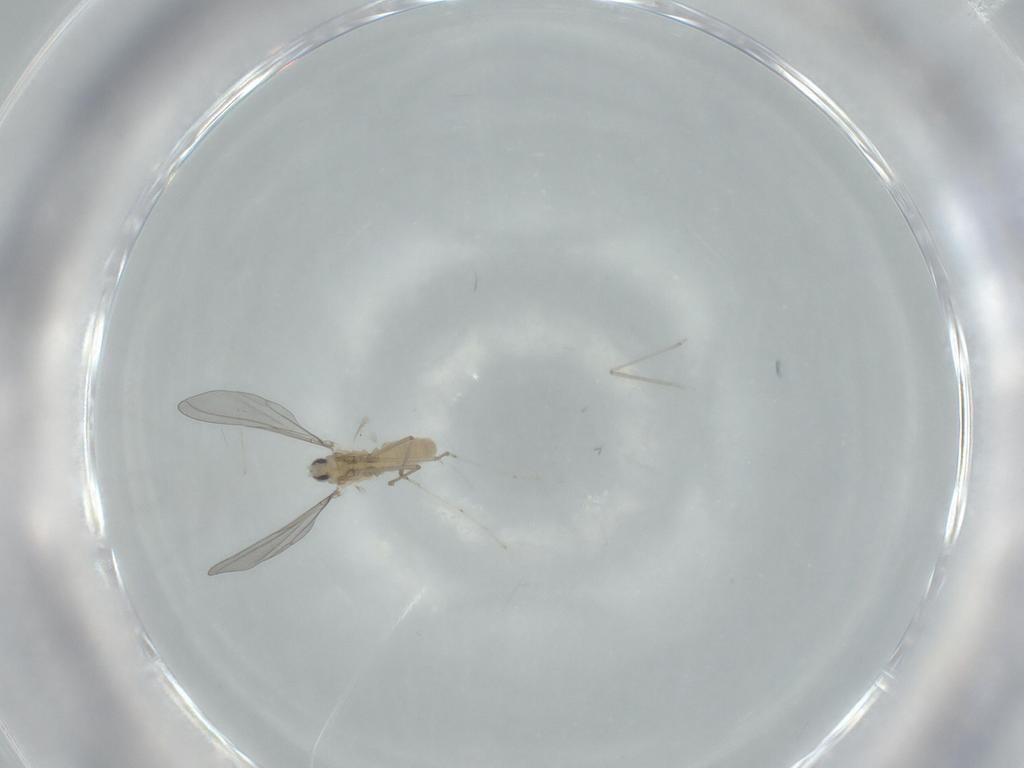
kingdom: Animalia
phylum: Arthropoda
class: Insecta
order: Diptera
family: Cecidomyiidae
